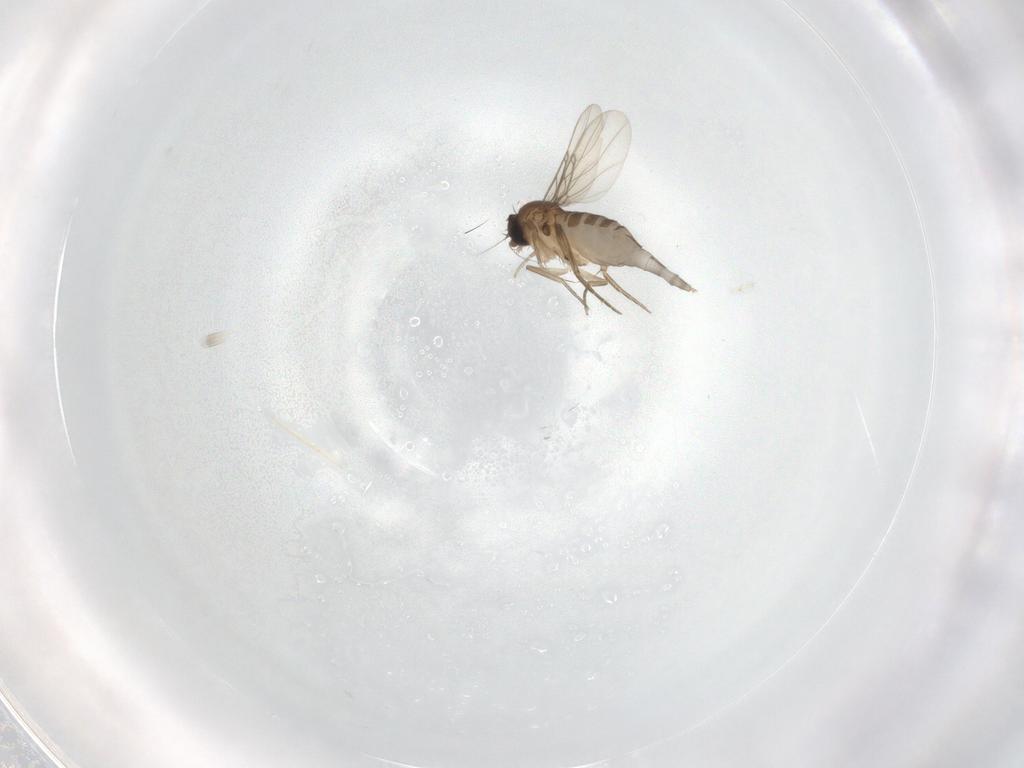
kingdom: Animalia
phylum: Arthropoda
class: Insecta
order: Diptera
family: Phoridae
